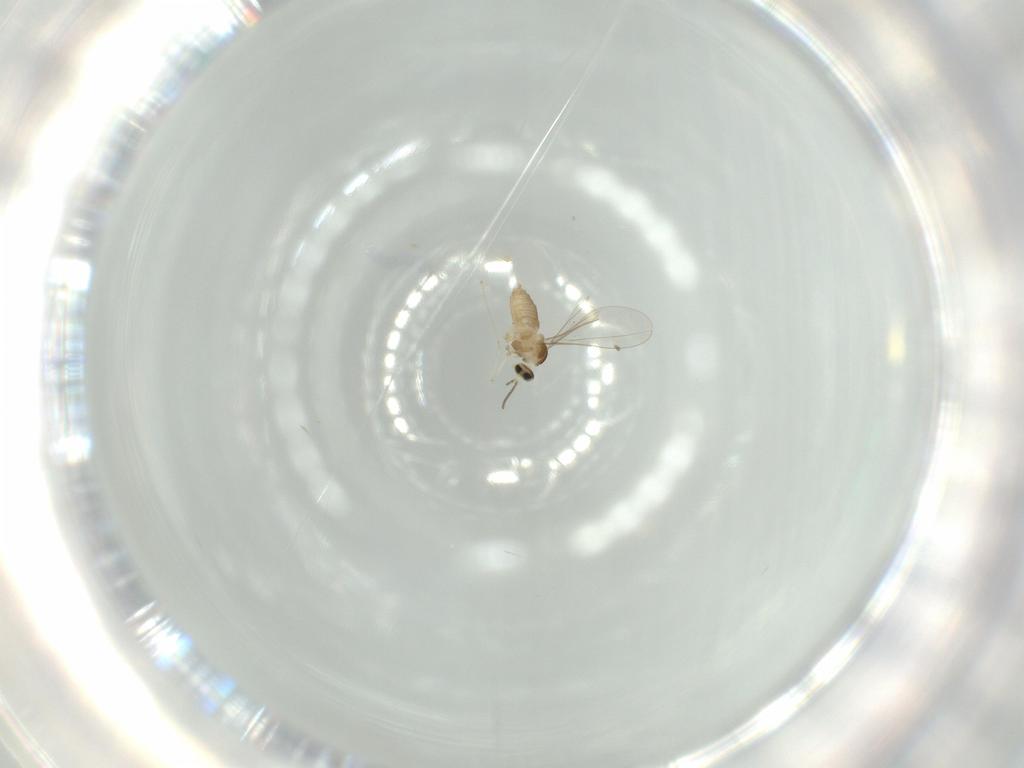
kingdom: Animalia
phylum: Arthropoda
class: Insecta
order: Diptera
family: Cecidomyiidae
